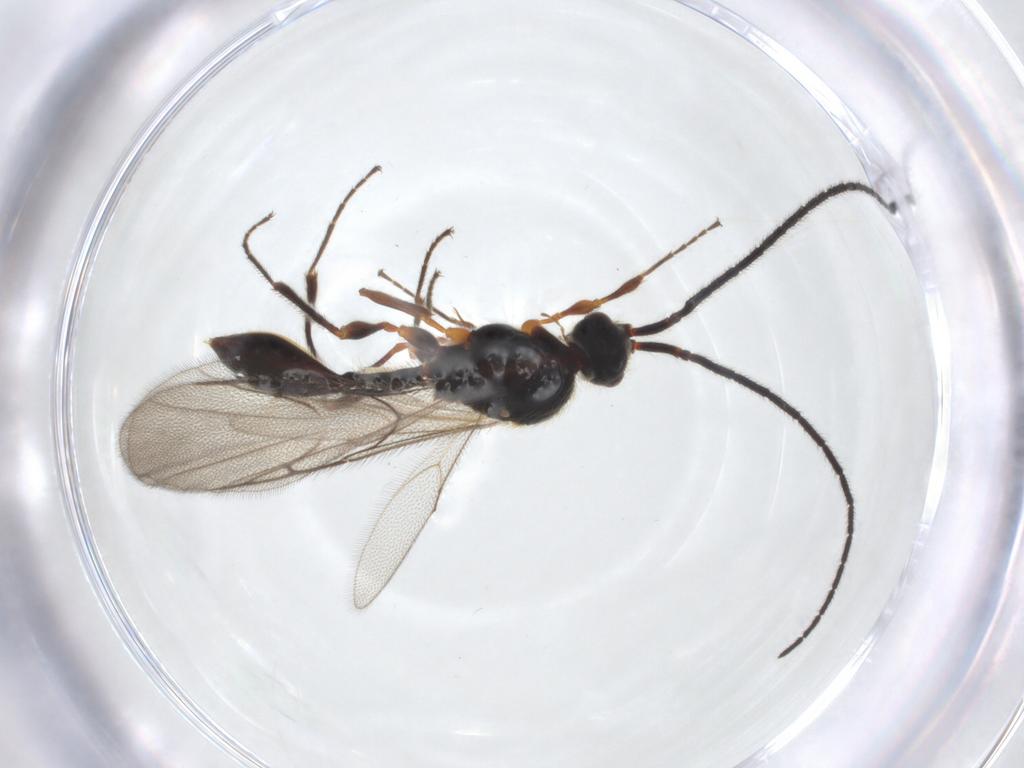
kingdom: Animalia
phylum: Arthropoda
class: Insecta
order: Hymenoptera
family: Diapriidae
